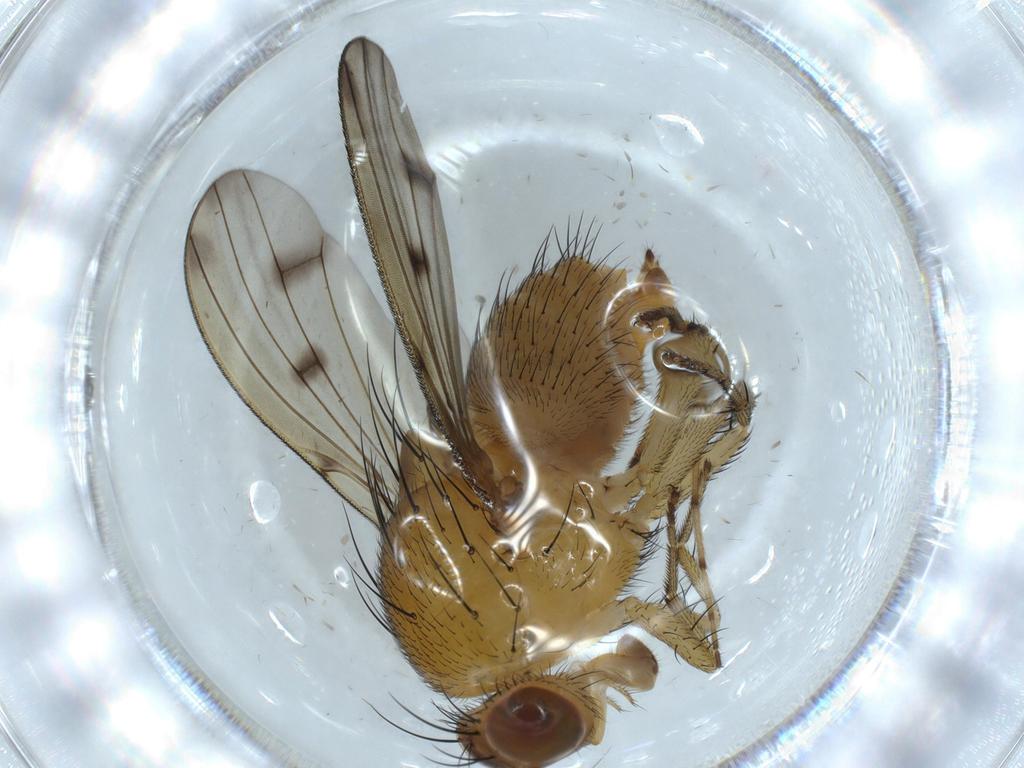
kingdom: Animalia
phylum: Arthropoda
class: Insecta
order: Diptera
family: Chironomidae
